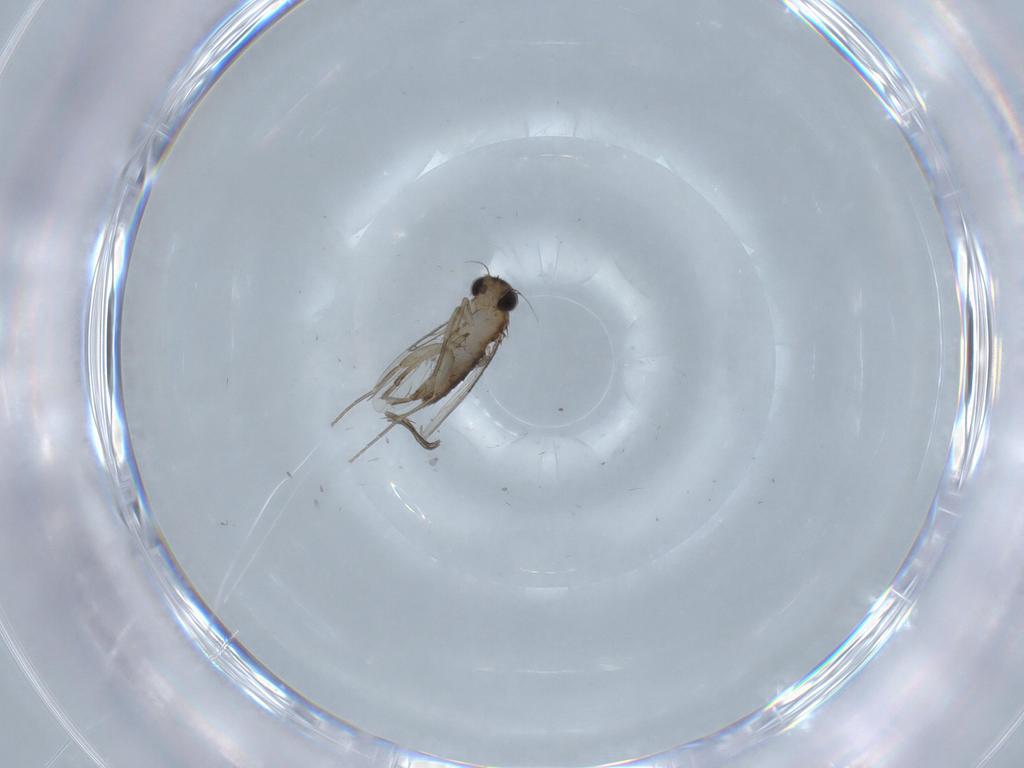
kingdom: Animalia
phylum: Arthropoda
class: Insecta
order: Diptera
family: Phoridae
